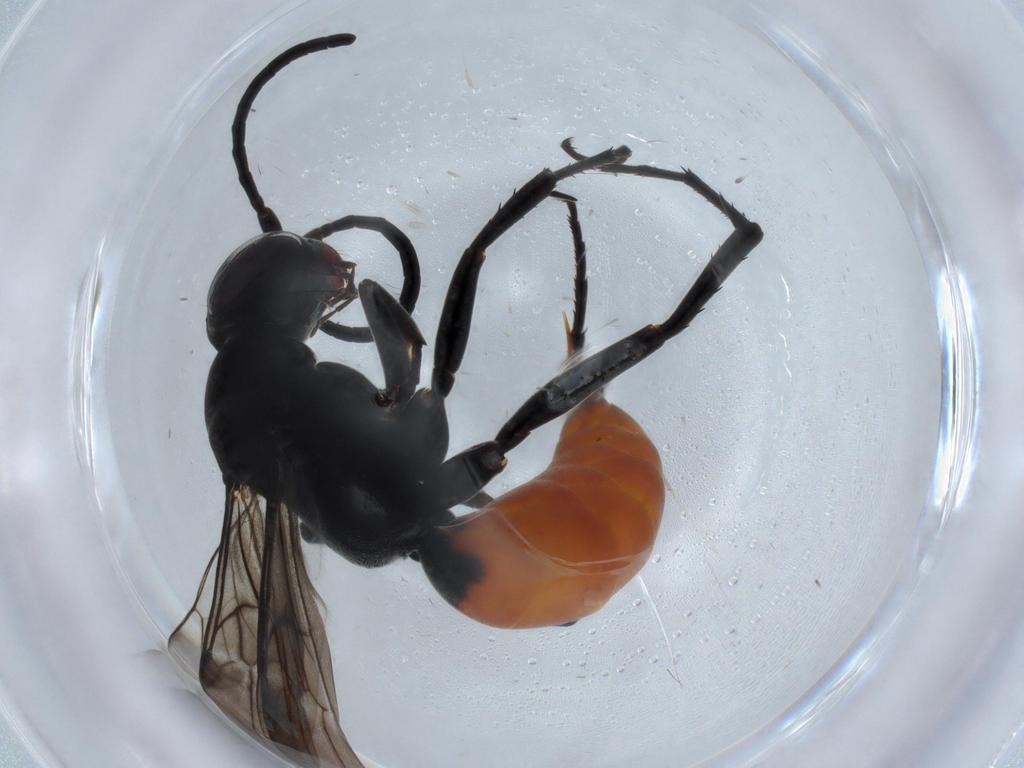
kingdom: Animalia
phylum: Arthropoda
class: Insecta
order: Hymenoptera
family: Pompilidae
